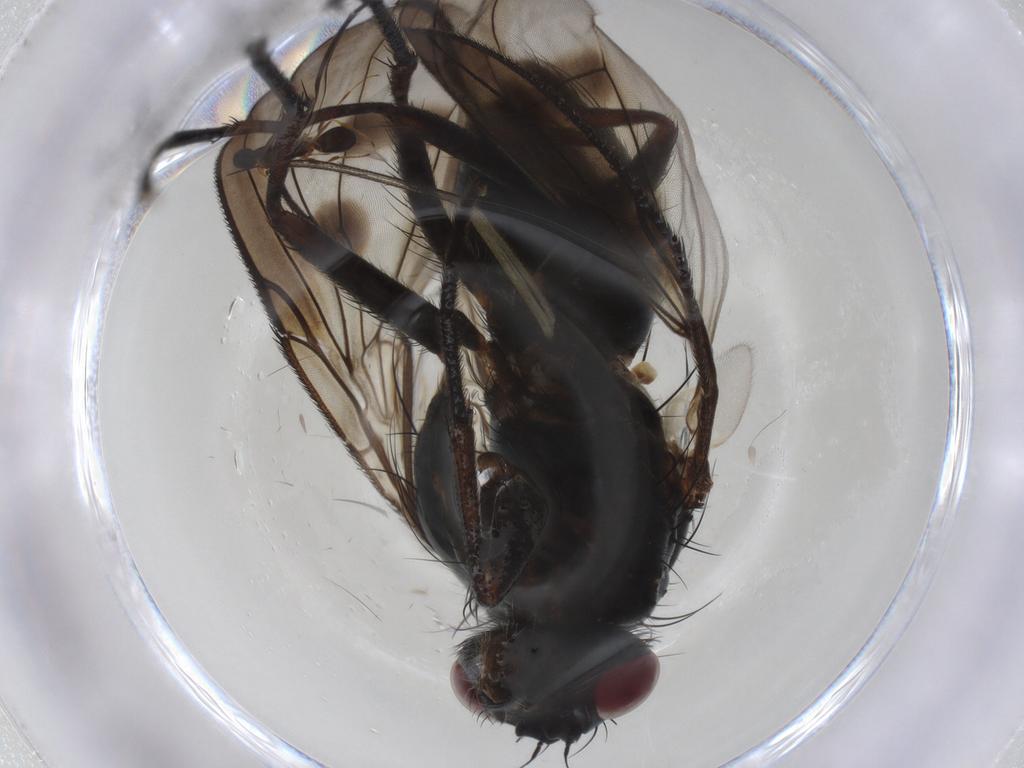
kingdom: Animalia
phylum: Arthropoda
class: Insecta
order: Diptera
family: Muscidae
